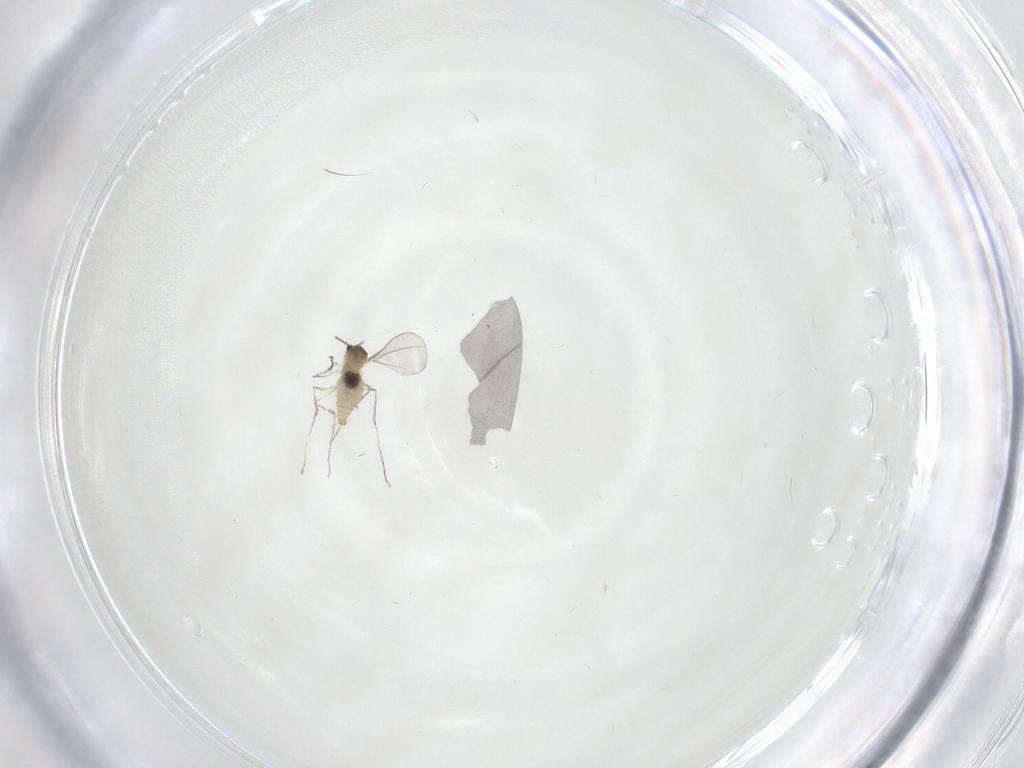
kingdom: Animalia
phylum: Arthropoda
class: Insecta
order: Diptera
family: Cecidomyiidae
